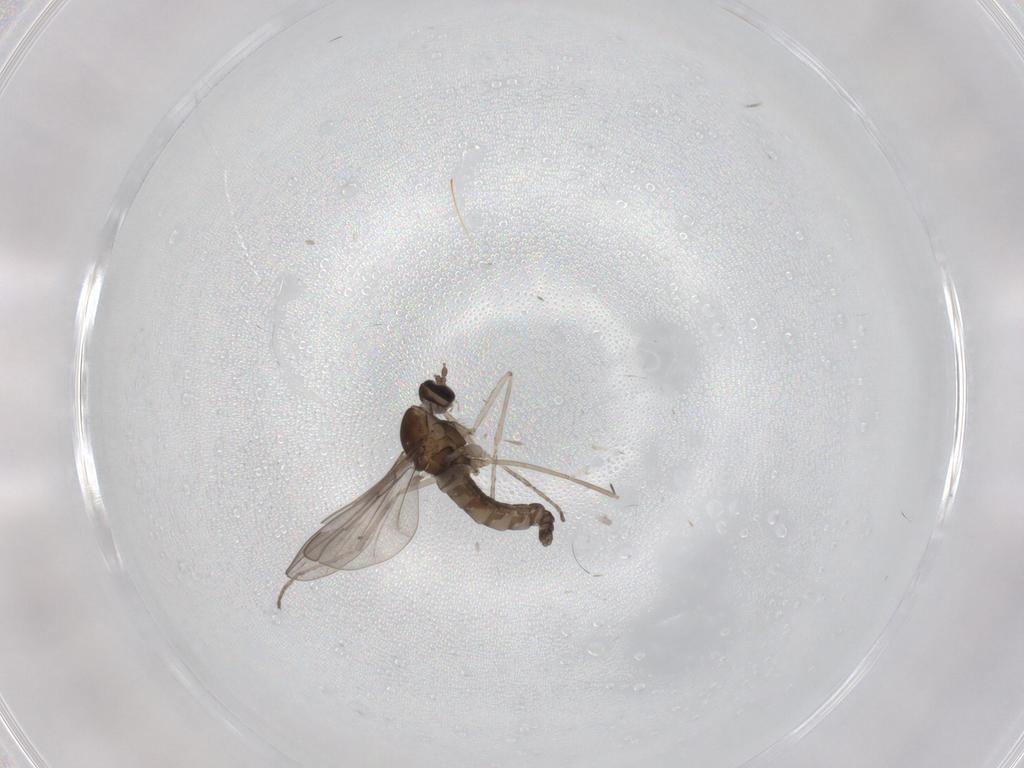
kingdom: Animalia
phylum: Arthropoda
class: Insecta
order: Diptera
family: Cecidomyiidae
